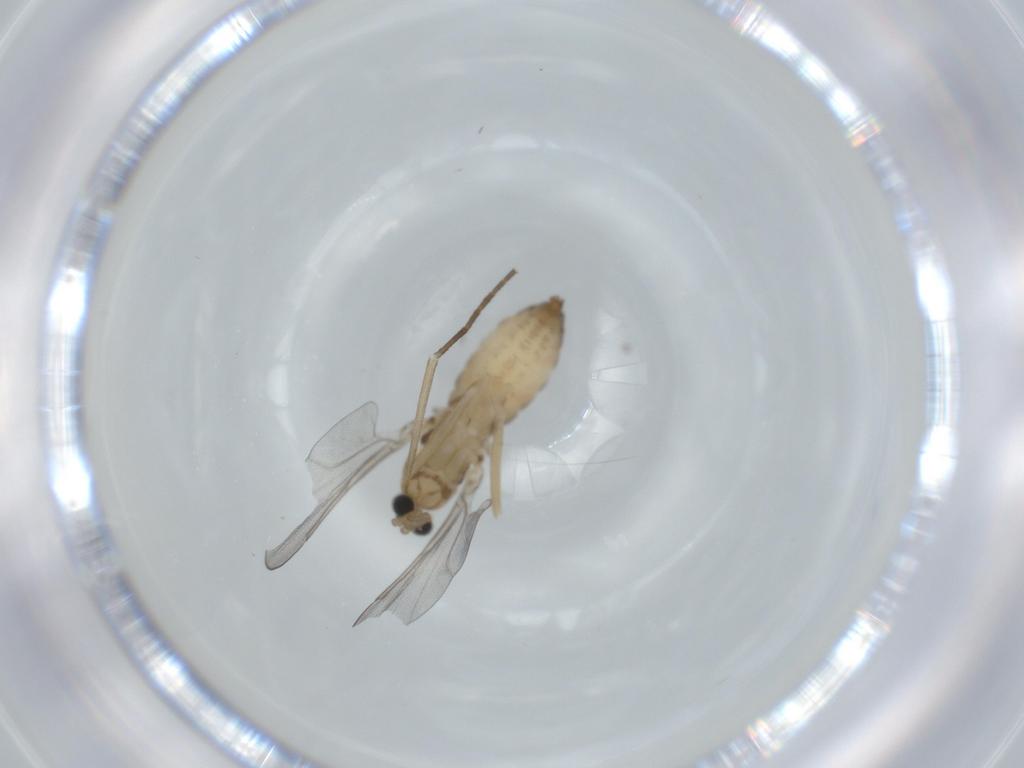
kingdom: Animalia
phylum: Arthropoda
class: Insecta
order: Diptera
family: Cecidomyiidae
